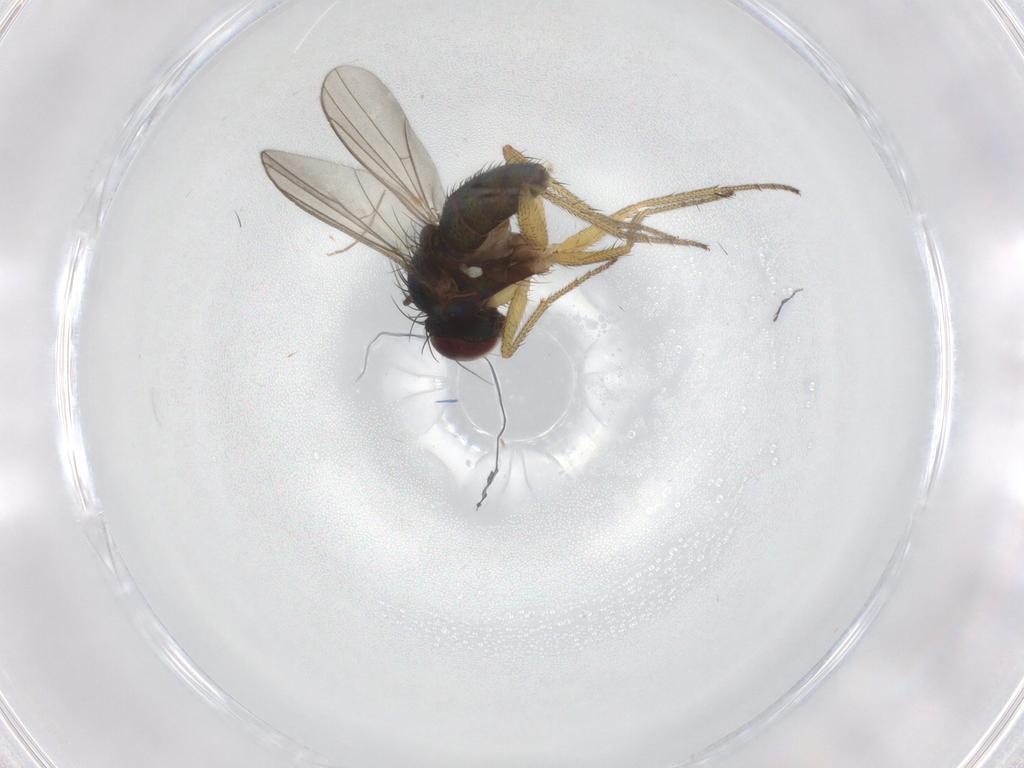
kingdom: Animalia
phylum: Arthropoda
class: Insecta
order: Diptera
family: Dolichopodidae
